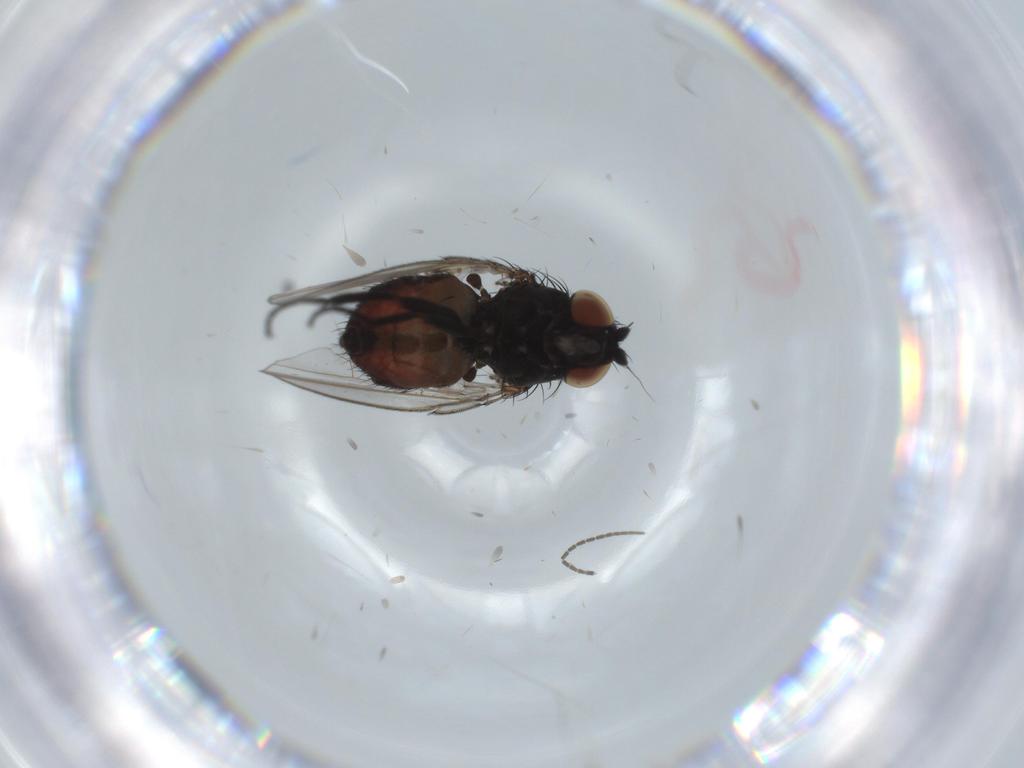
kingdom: Animalia
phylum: Arthropoda
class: Insecta
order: Diptera
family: Milichiidae
